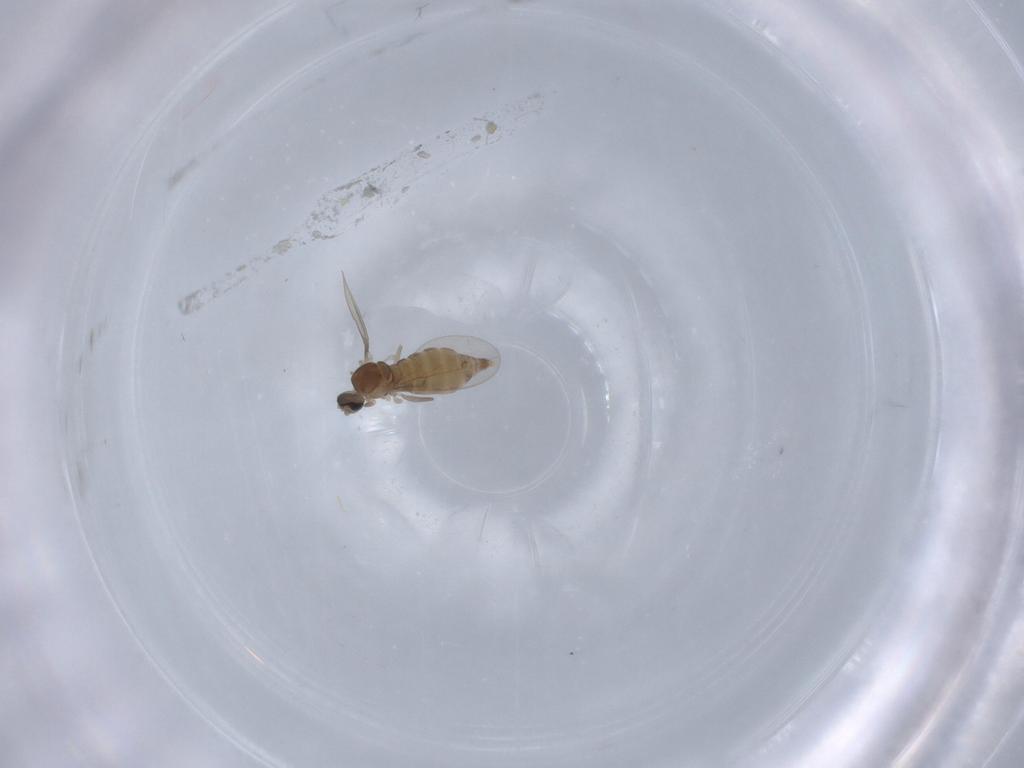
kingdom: Animalia
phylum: Arthropoda
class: Insecta
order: Diptera
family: Cecidomyiidae
